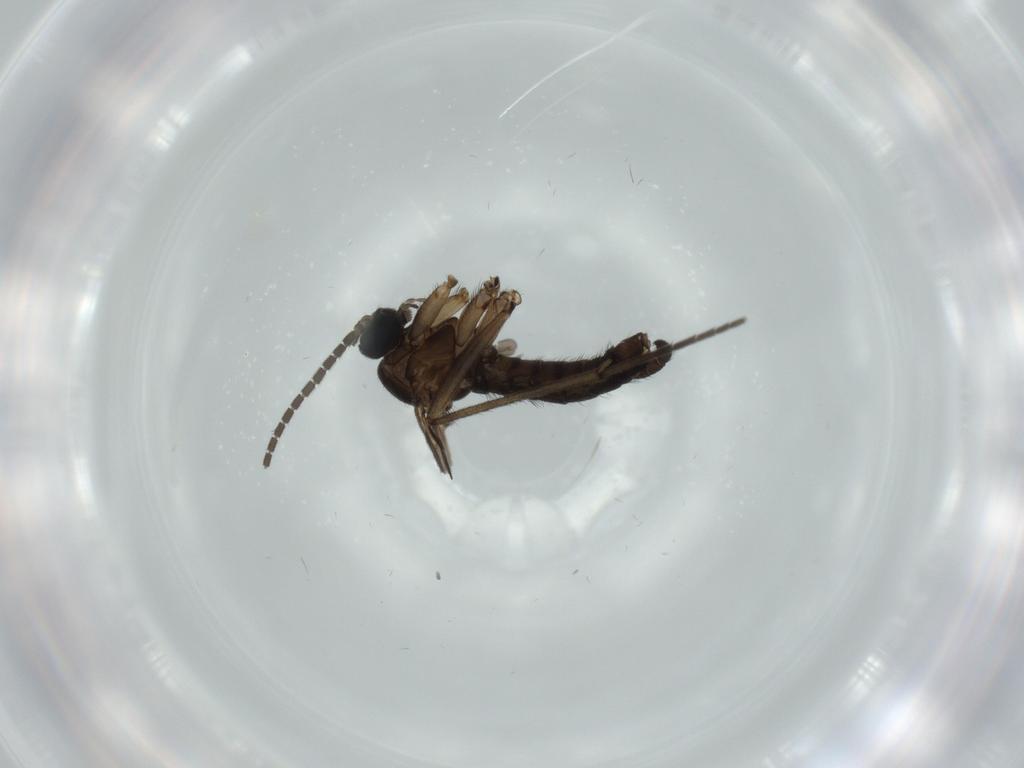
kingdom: Animalia
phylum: Arthropoda
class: Insecta
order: Diptera
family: Sciaridae
